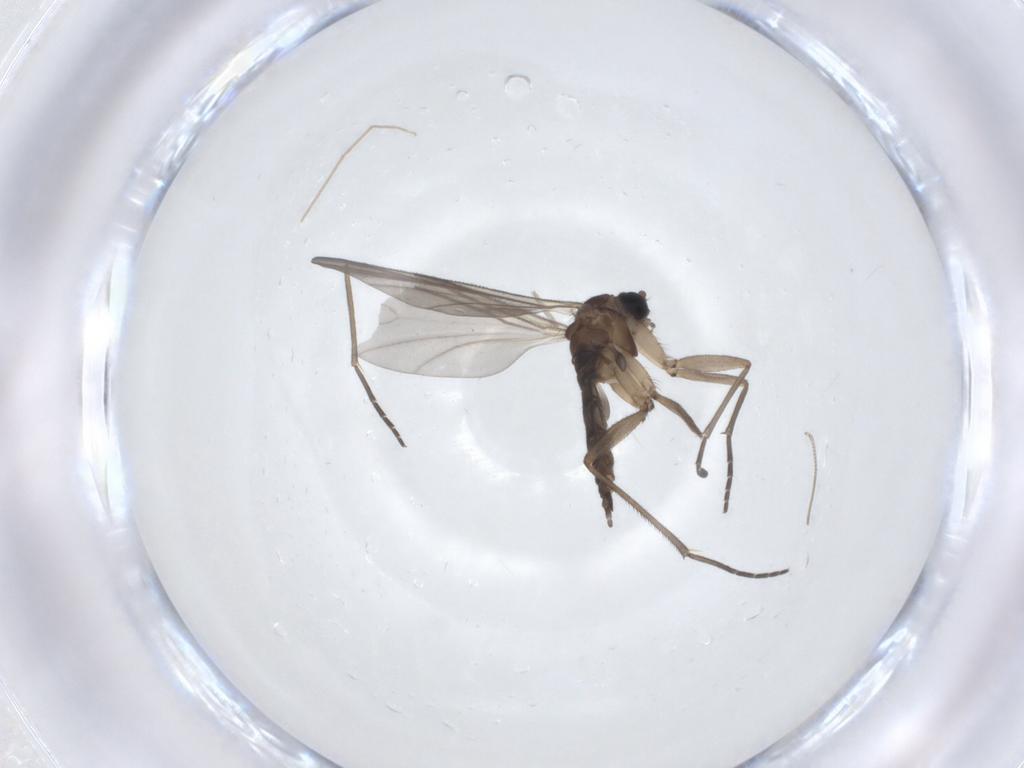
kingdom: Animalia
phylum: Arthropoda
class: Insecta
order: Diptera
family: Chironomidae
